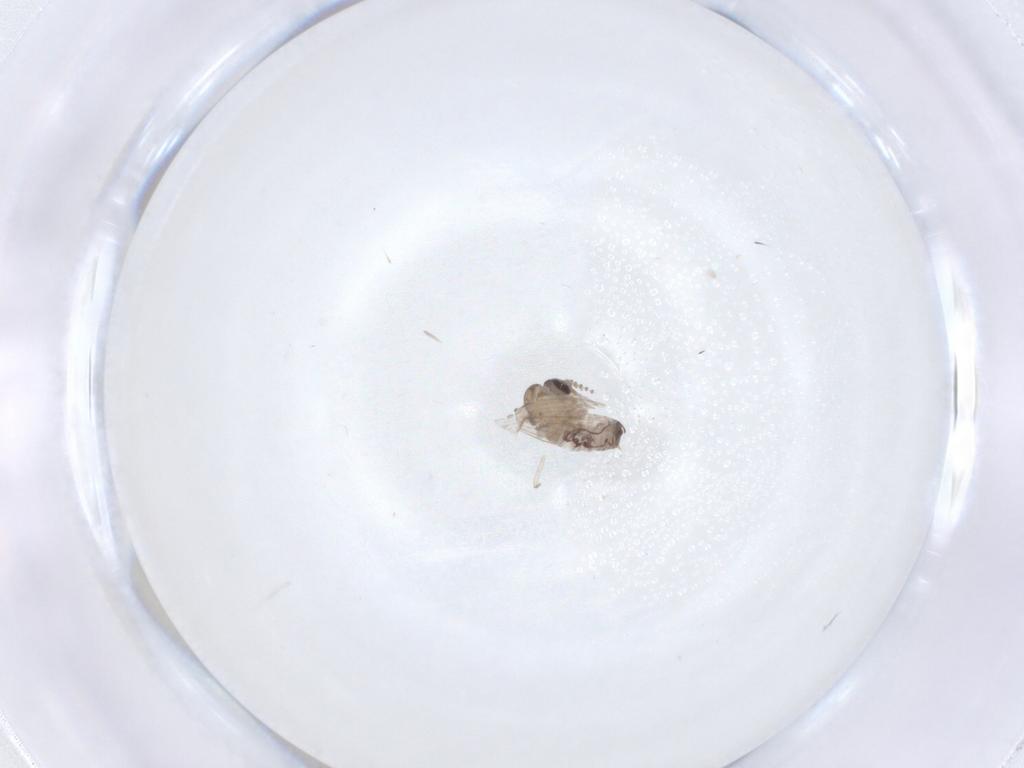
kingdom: Animalia
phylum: Arthropoda
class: Insecta
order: Diptera
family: Psychodidae
